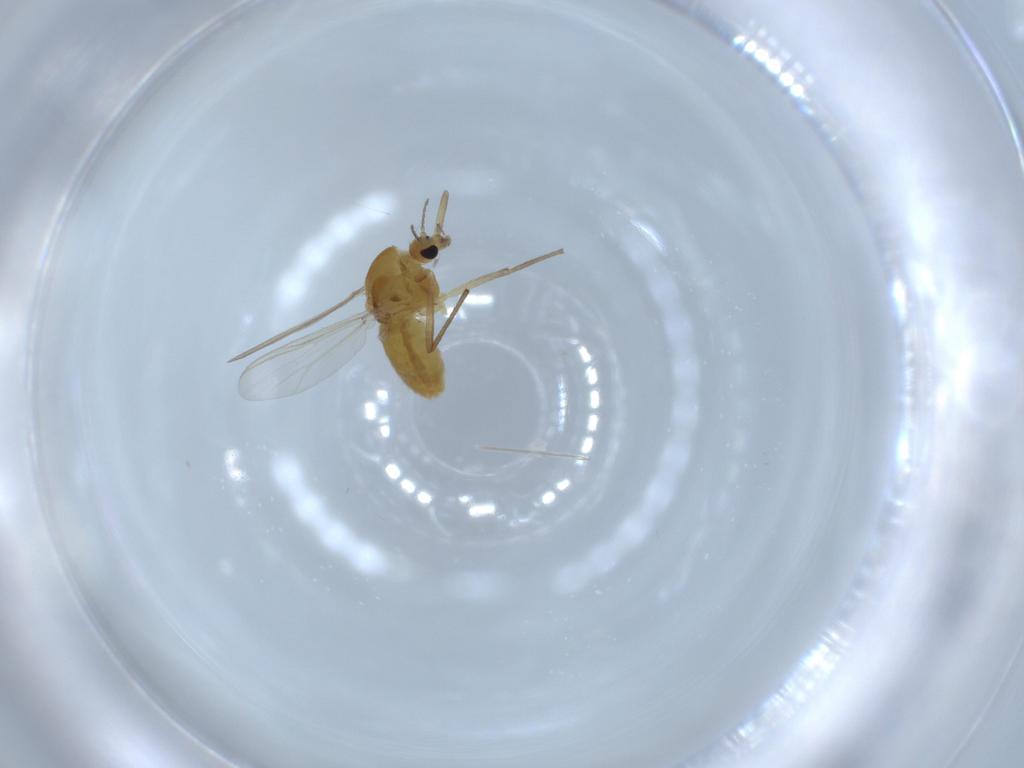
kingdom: Animalia
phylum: Arthropoda
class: Insecta
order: Diptera
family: Chironomidae
